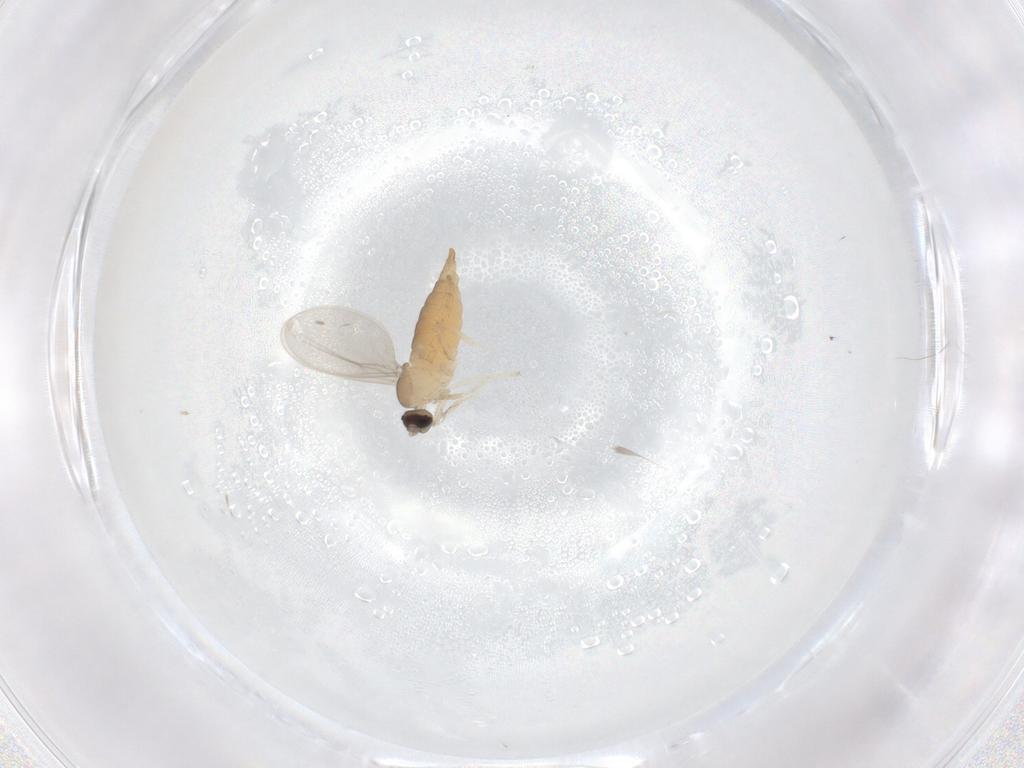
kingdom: Animalia
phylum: Arthropoda
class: Insecta
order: Diptera
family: Cecidomyiidae
